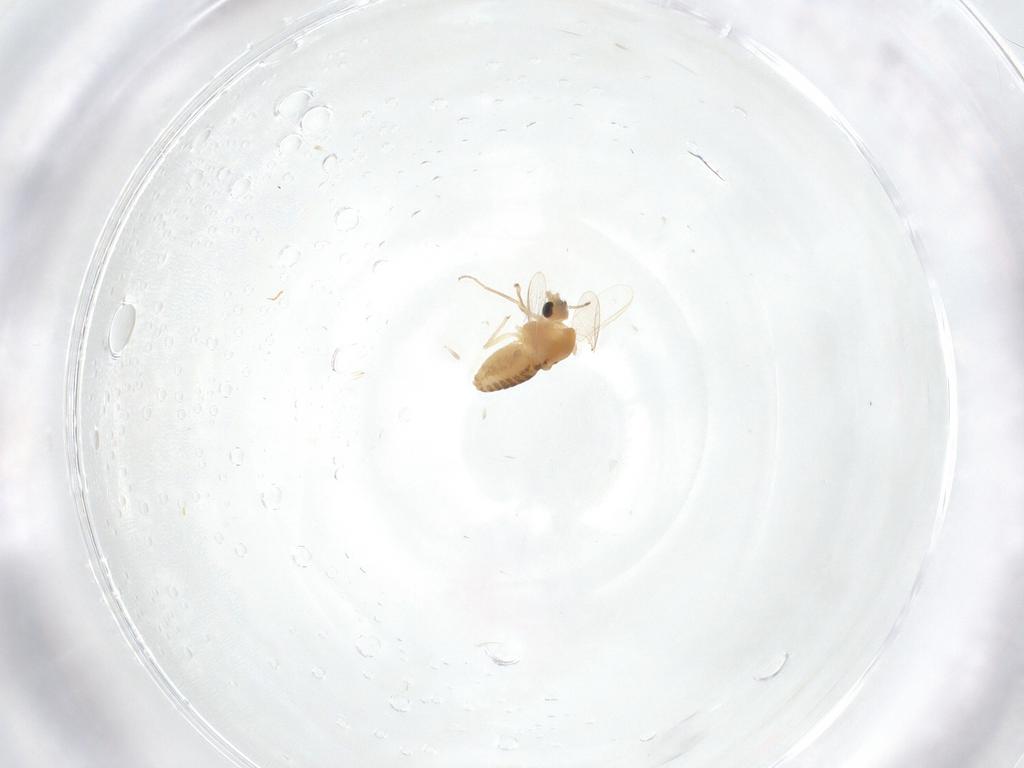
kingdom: Animalia
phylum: Arthropoda
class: Insecta
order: Diptera
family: Chironomidae
